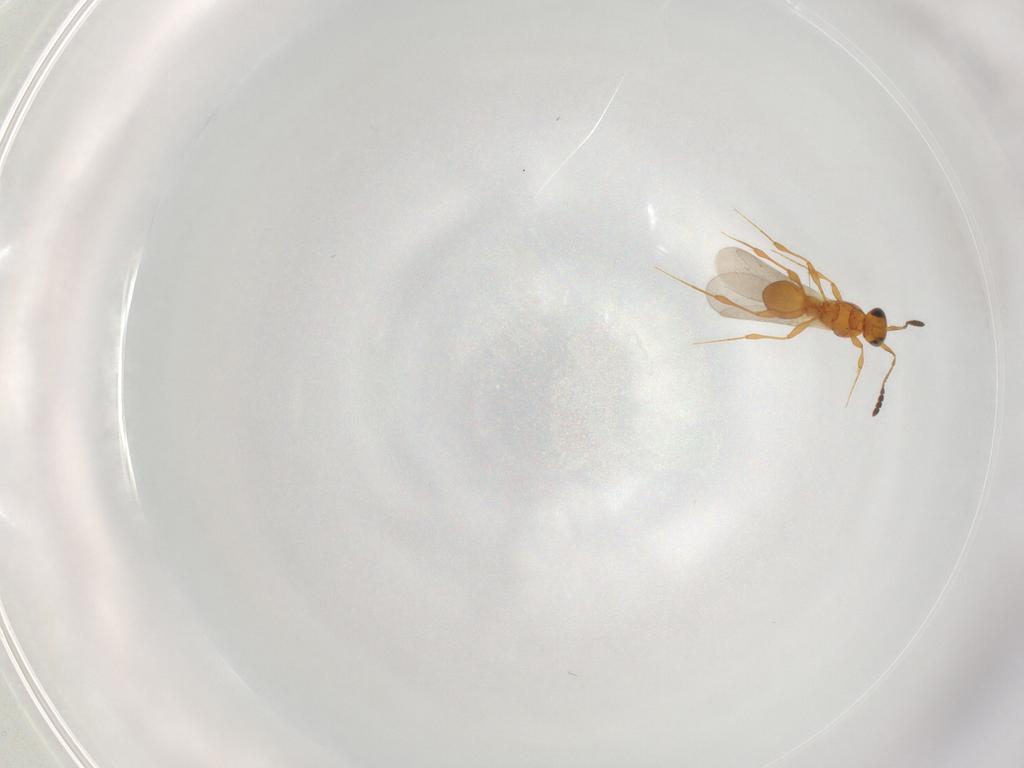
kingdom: Animalia
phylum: Arthropoda
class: Insecta
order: Hymenoptera
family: Platygastridae
